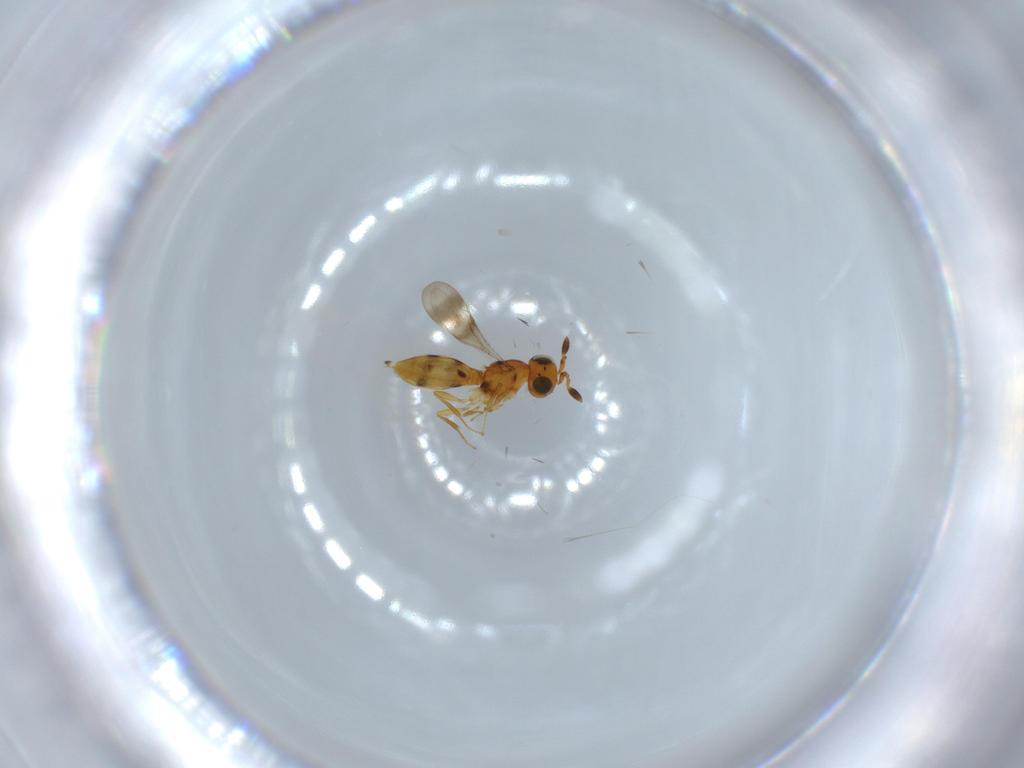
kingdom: Animalia
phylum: Arthropoda
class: Insecta
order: Hymenoptera
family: Scelionidae
